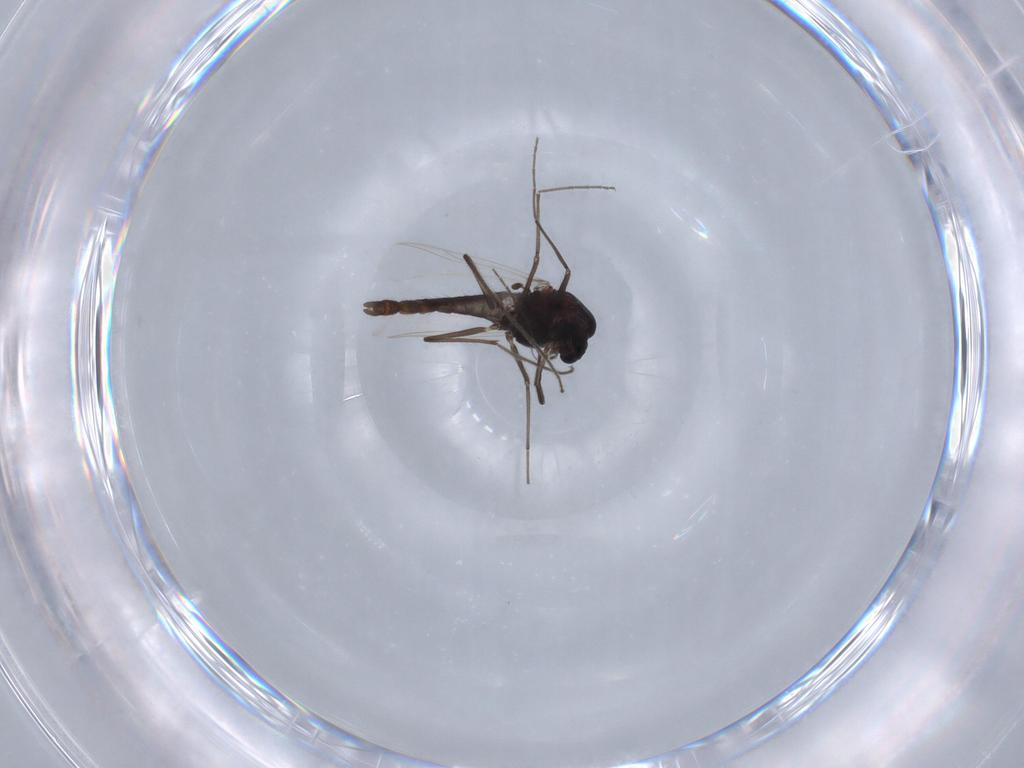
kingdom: Animalia
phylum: Arthropoda
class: Insecta
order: Diptera
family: Chironomidae
